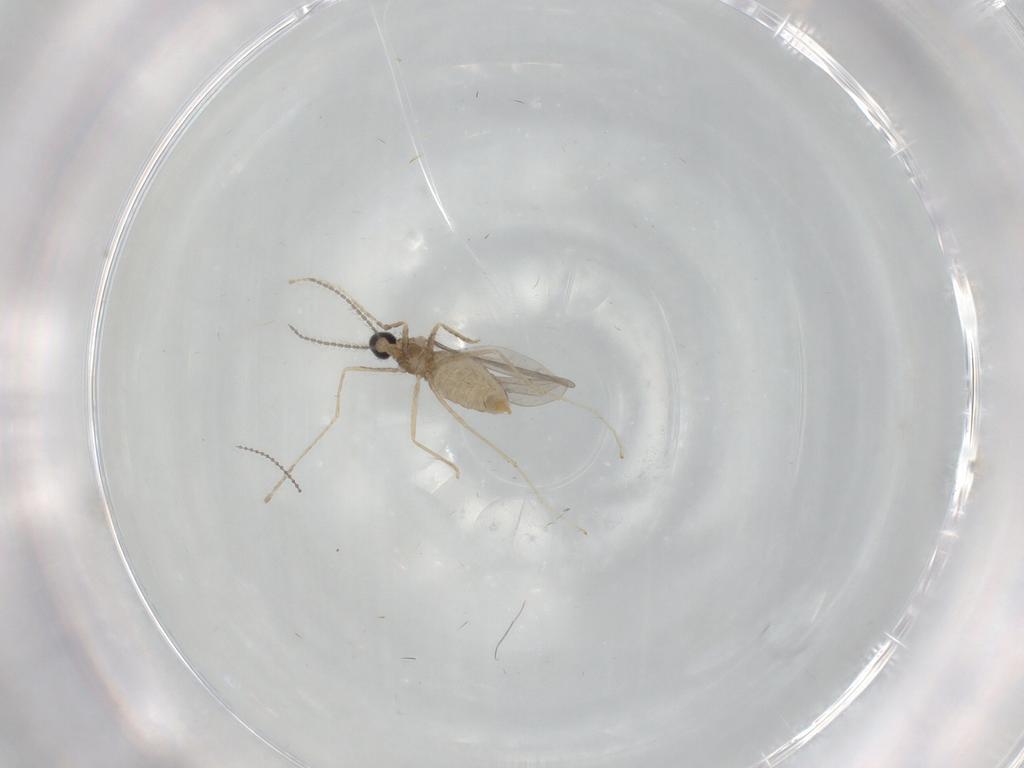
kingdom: Animalia
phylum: Arthropoda
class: Insecta
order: Diptera
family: Cecidomyiidae
